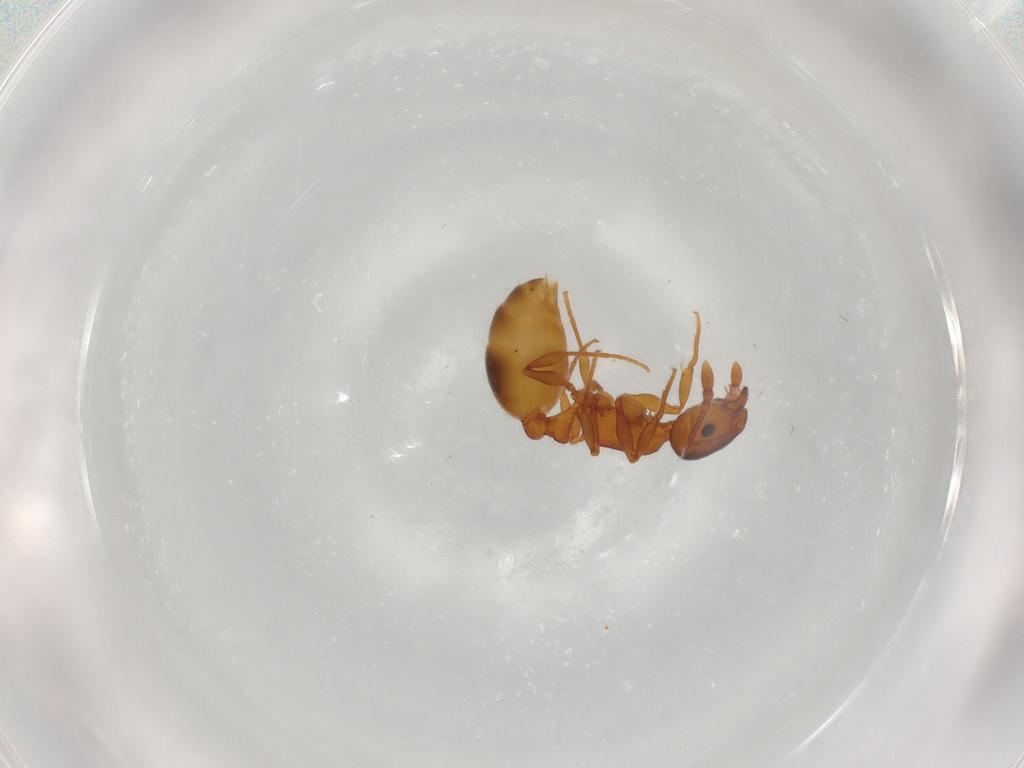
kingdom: Animalia
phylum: Arthropoda
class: Insecta
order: Hymenoptera
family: Formicidae
